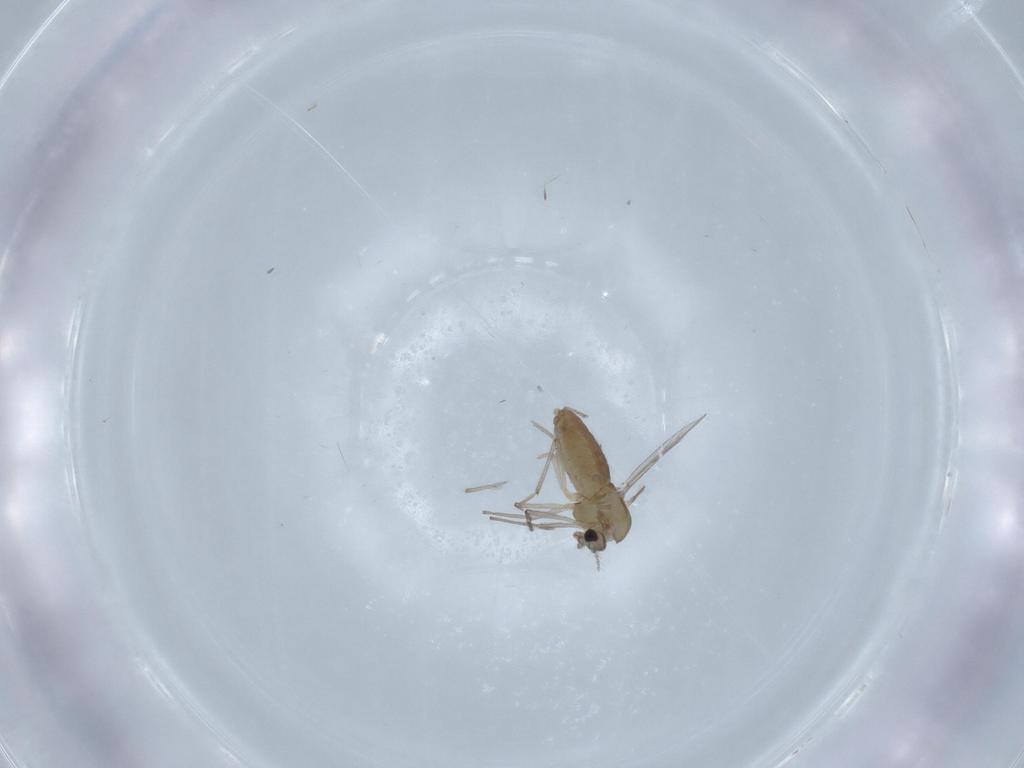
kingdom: Animalia
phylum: Arthropoda
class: Insecta
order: Diptera
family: Chironomidae
